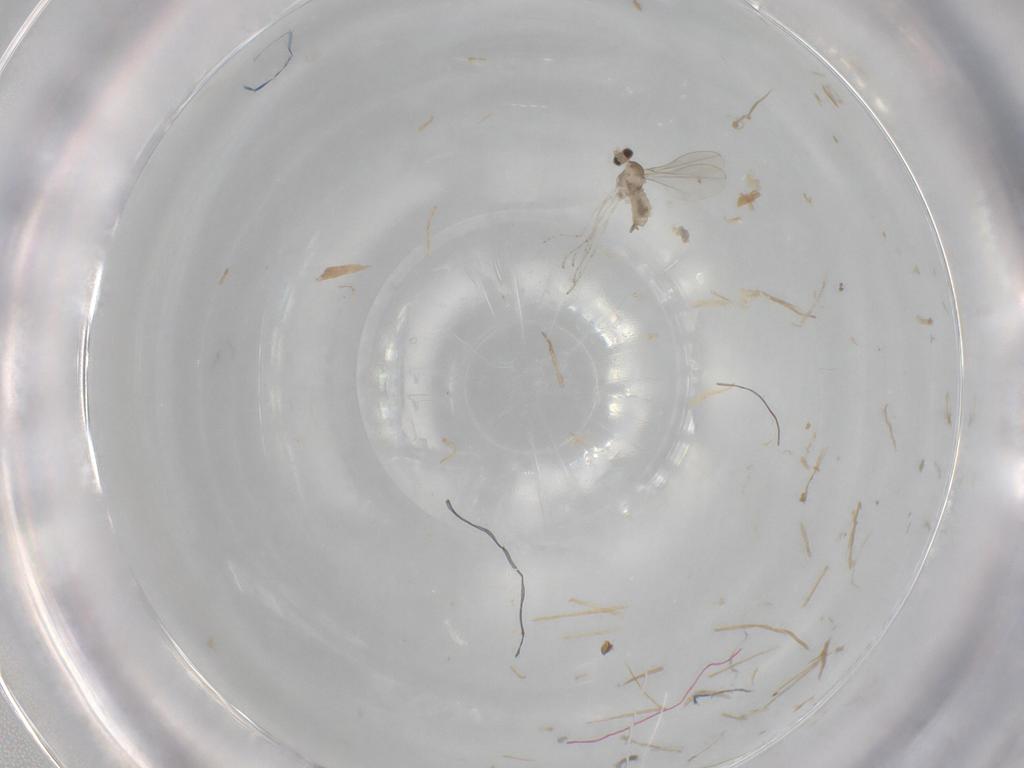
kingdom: Animalia
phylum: Arthropoda
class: Insecta
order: Diptera
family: Cecidomyiidae
